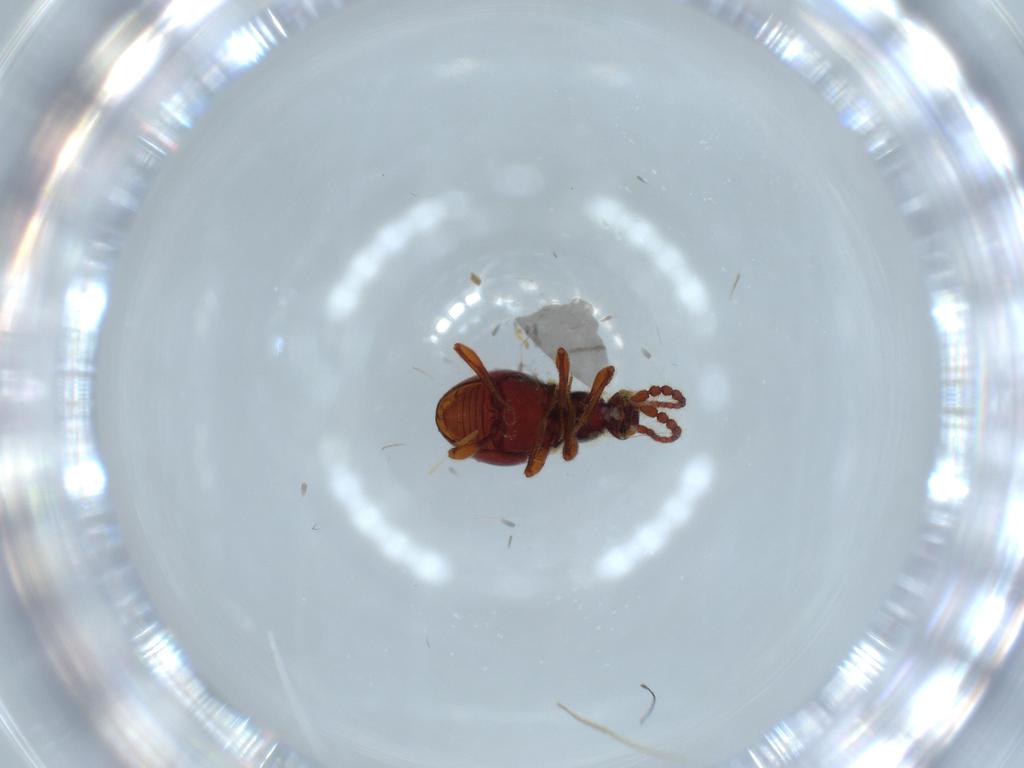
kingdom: Animalia
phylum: Arthropoda
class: Insecta
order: Coleoptera
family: Staphylinidae
